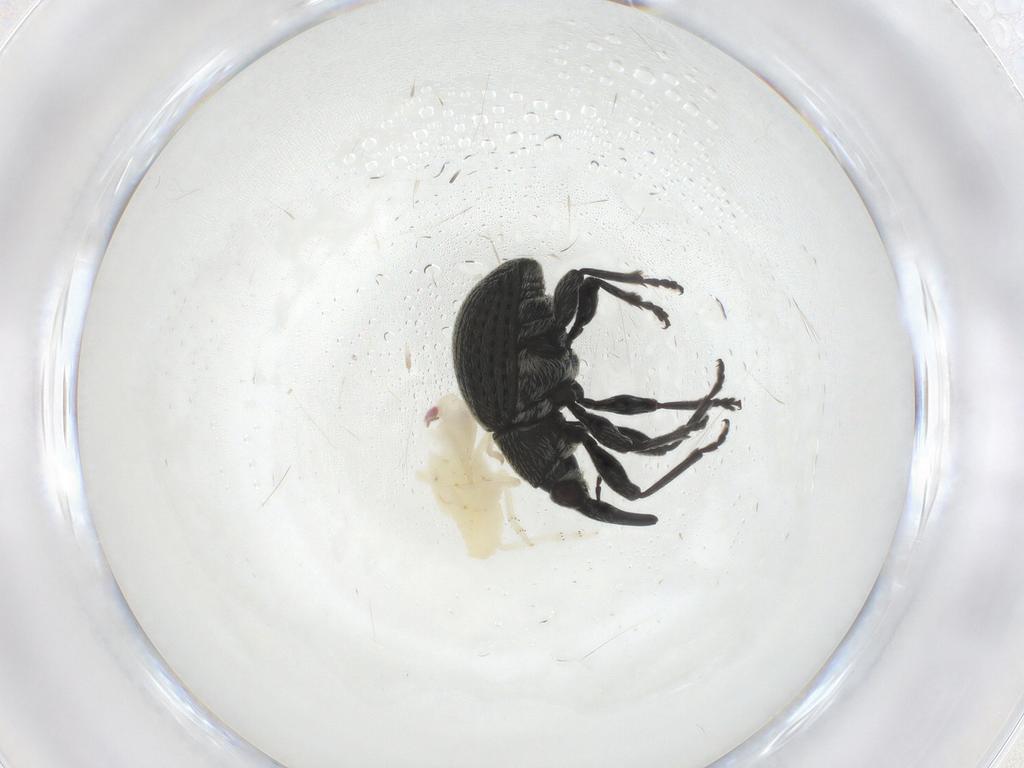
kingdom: Animalia
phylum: Arthropoda
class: Insecta
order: Coleoptera
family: Brentidae
